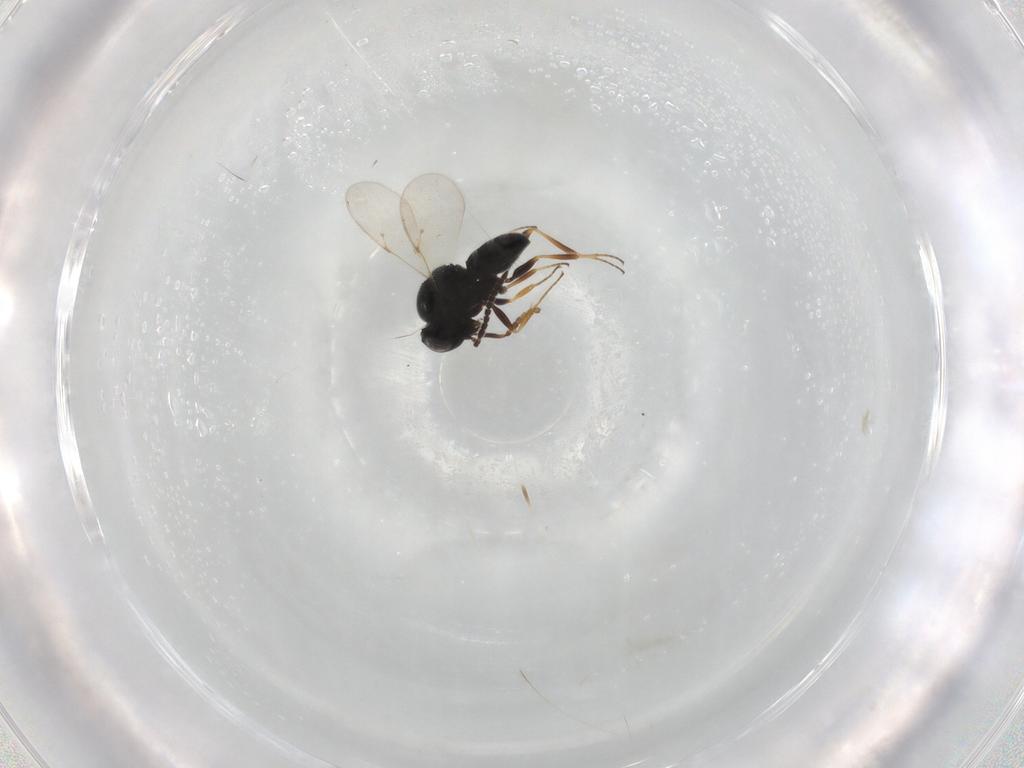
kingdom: Animalia
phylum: Arthropoda
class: Insecta
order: Hymenoptera
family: Scelionidae
